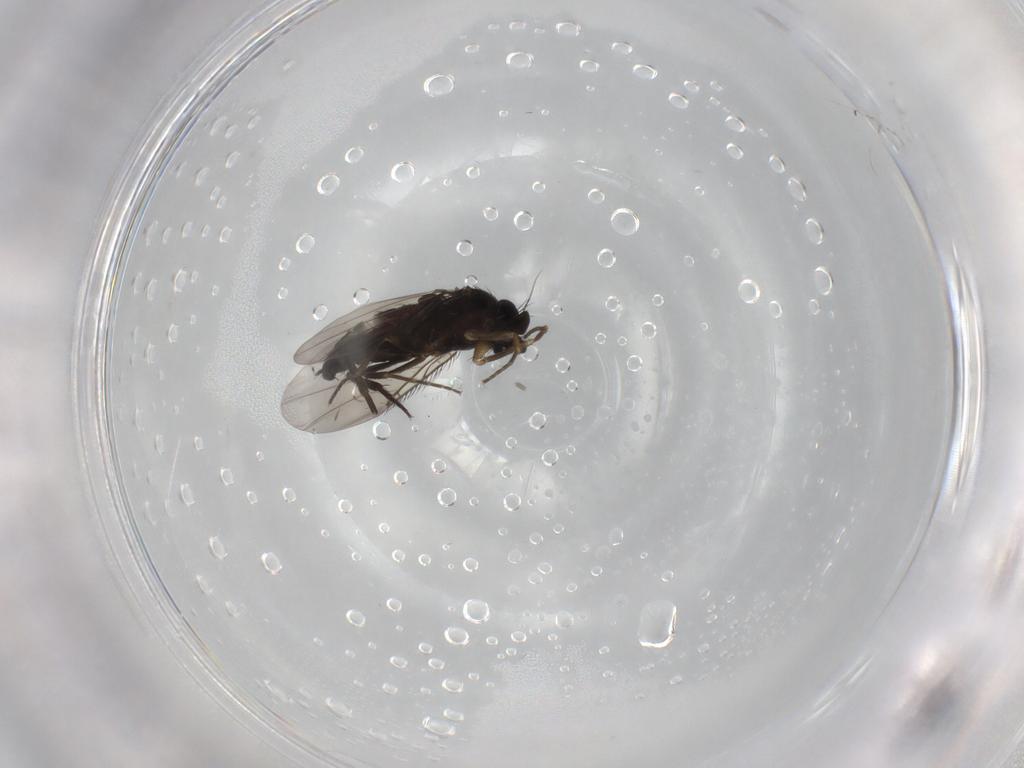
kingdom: Animalia
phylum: Arthropoda
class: Insecta
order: Diptera
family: Phoridae
